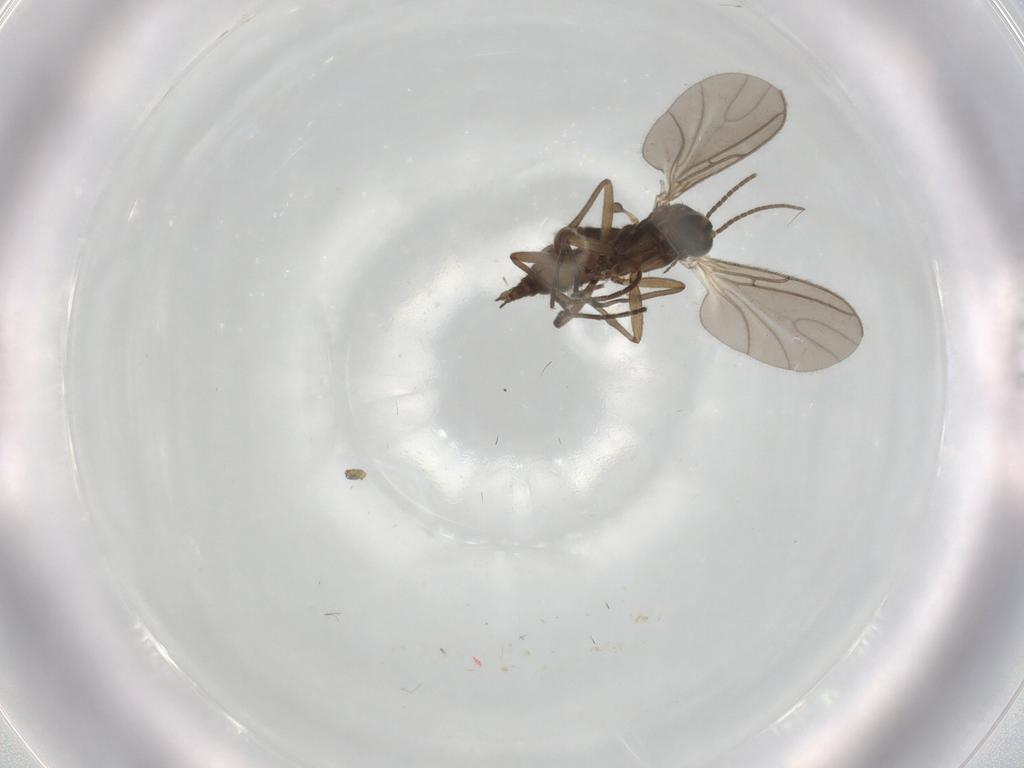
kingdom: Animalia
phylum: Arthropoda
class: Insecta
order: Diptera
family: Sciaridae
